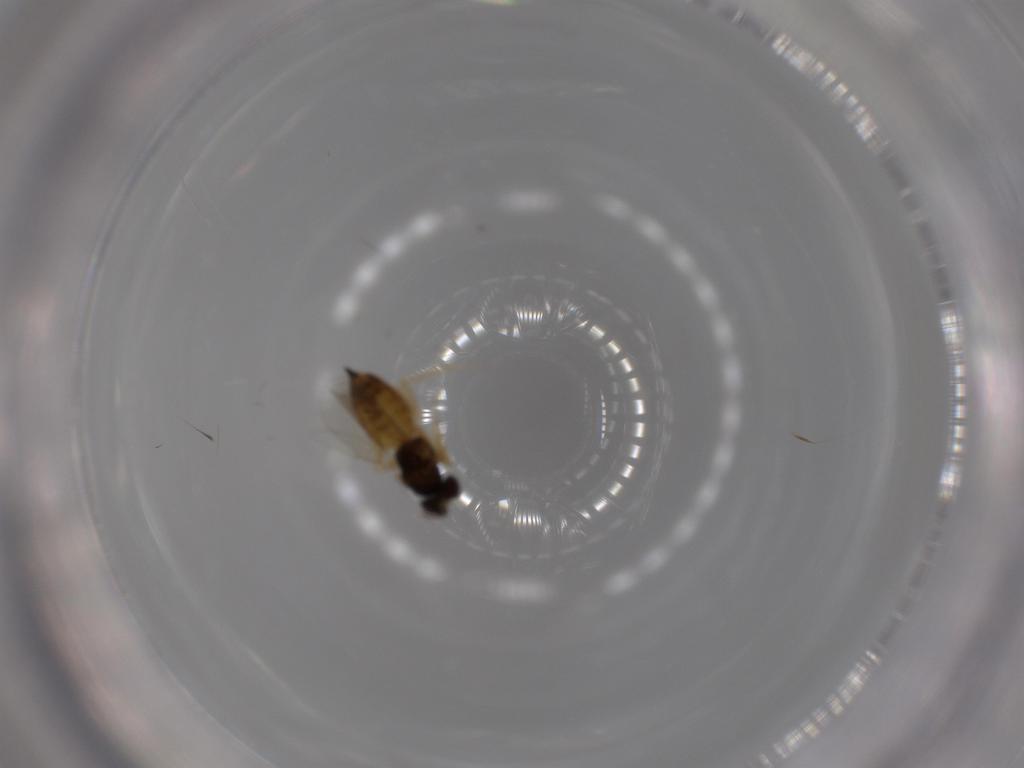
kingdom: Animalia
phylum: Arthropoda
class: Insecta
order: Hymenoptera
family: Eulophidae
